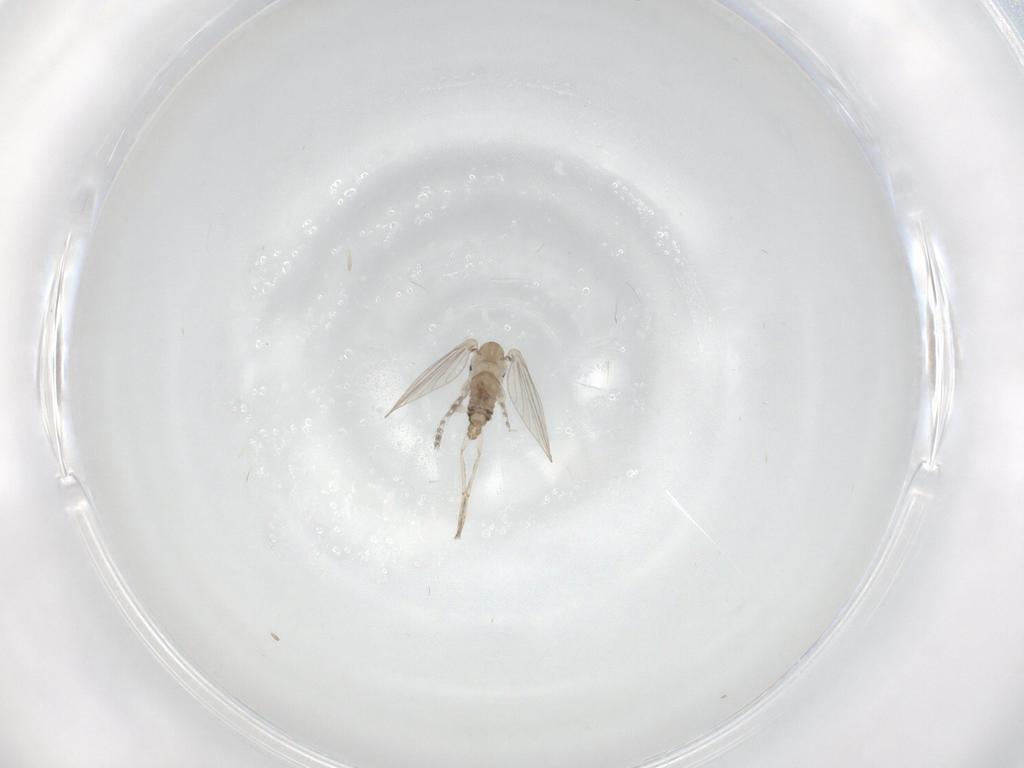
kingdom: Animalia
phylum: Arthropoda
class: Insecta
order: Diptera
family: Psychodidae
